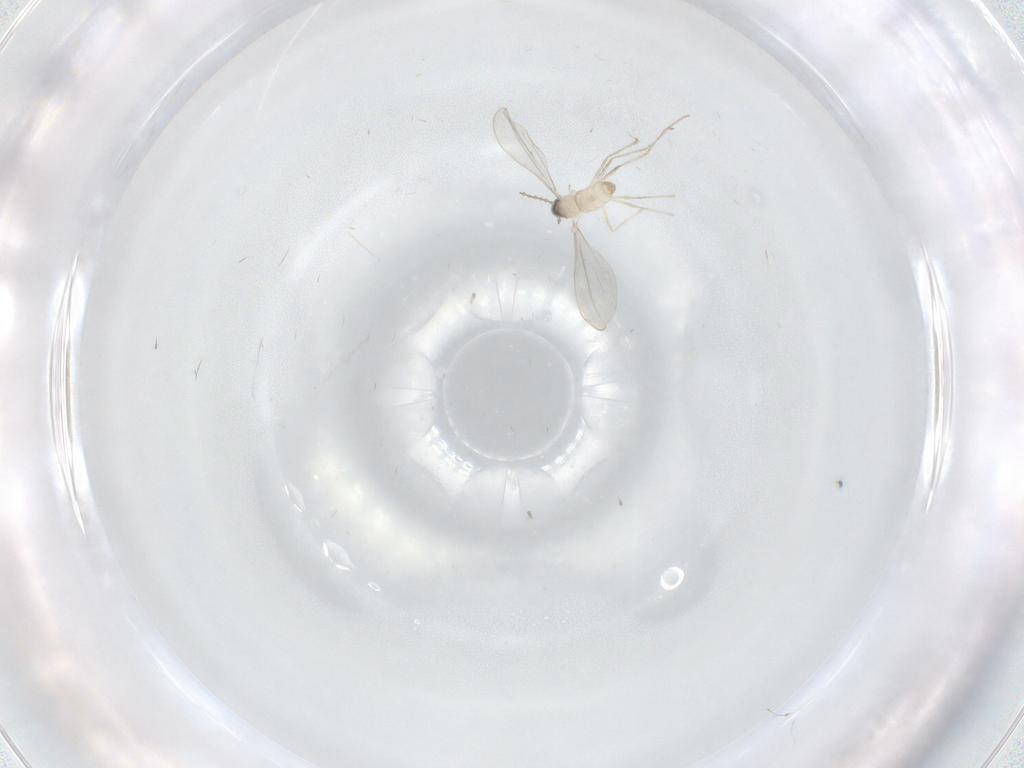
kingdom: Animalia
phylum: Arthropoda
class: Insecta
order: Diptera
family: Cecidomyiidae
